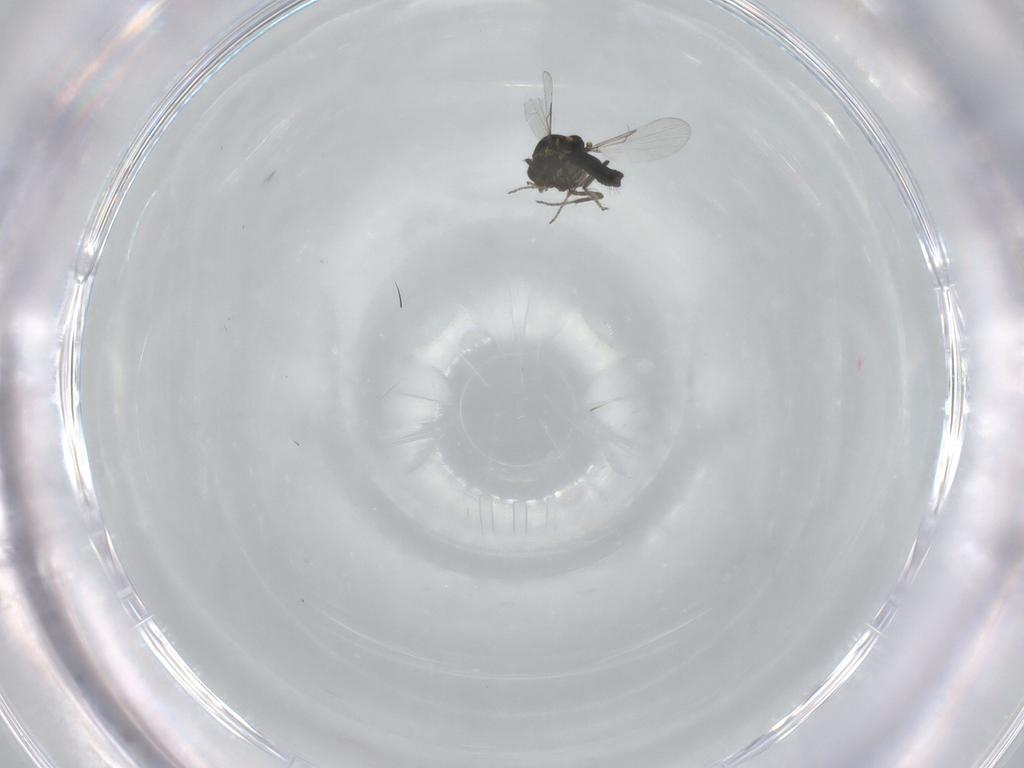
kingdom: Animalia
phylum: Arthropoda
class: Insecta
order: Diptera
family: Ceratopogonidae
